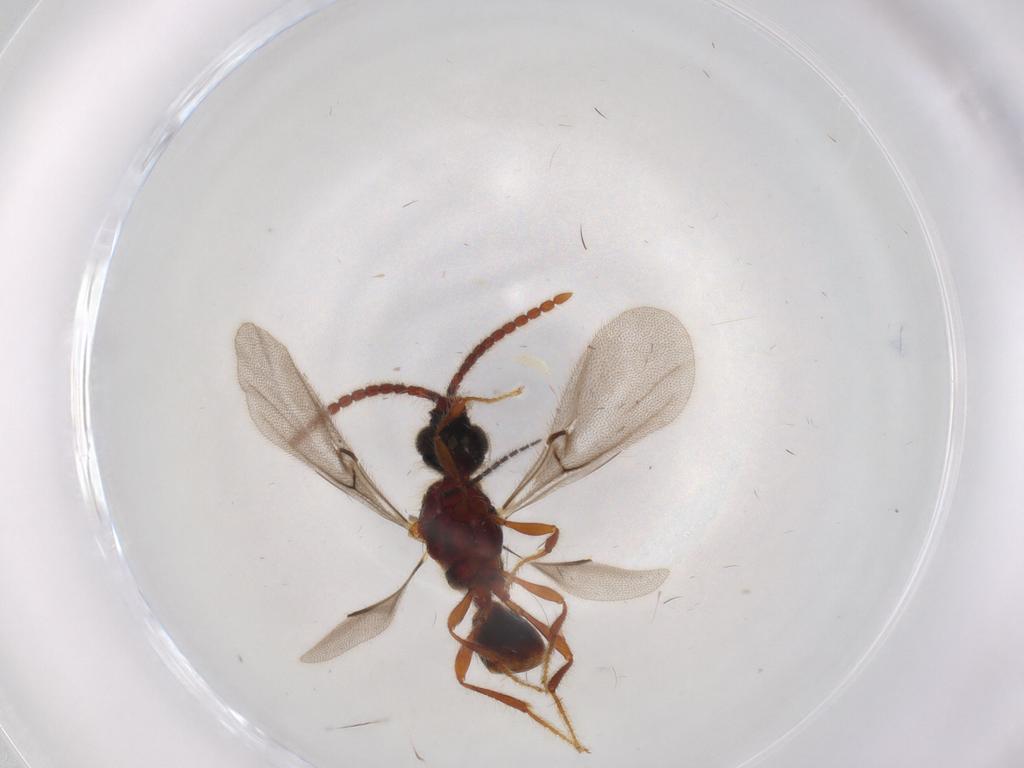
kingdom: Animalia
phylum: Arthropoda
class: Insecta
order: Hymenoptera
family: Diapriidae
